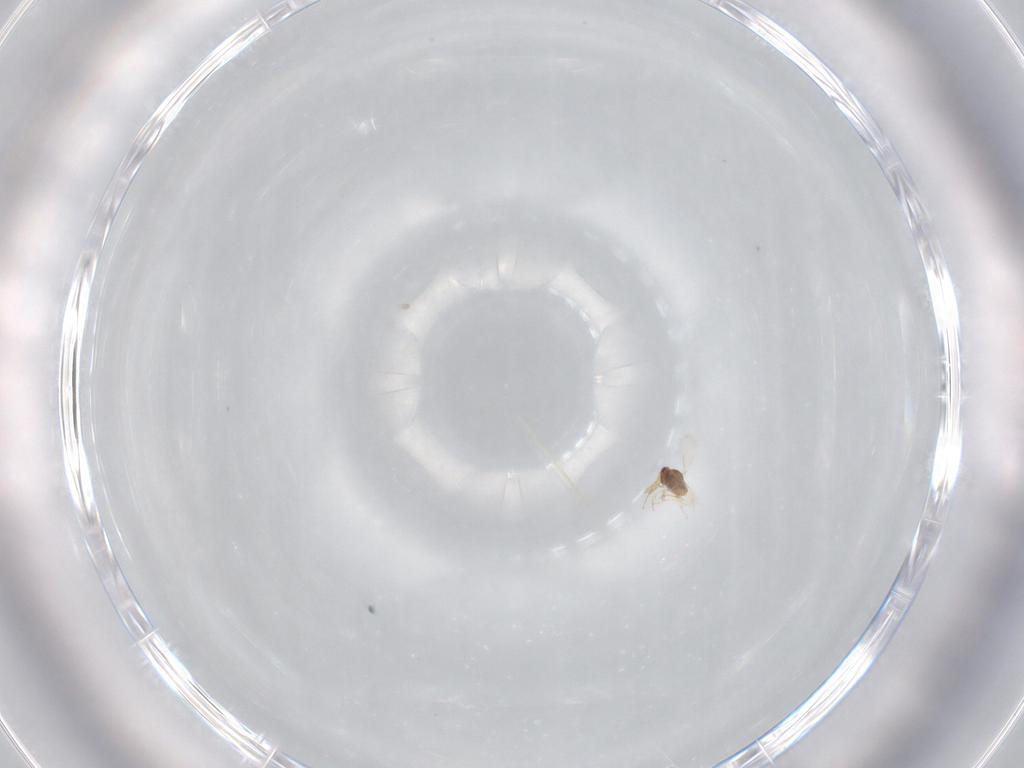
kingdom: Animalia
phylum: Arthropoda
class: Insecta
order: Hymenoptera
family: Aphelinidae
